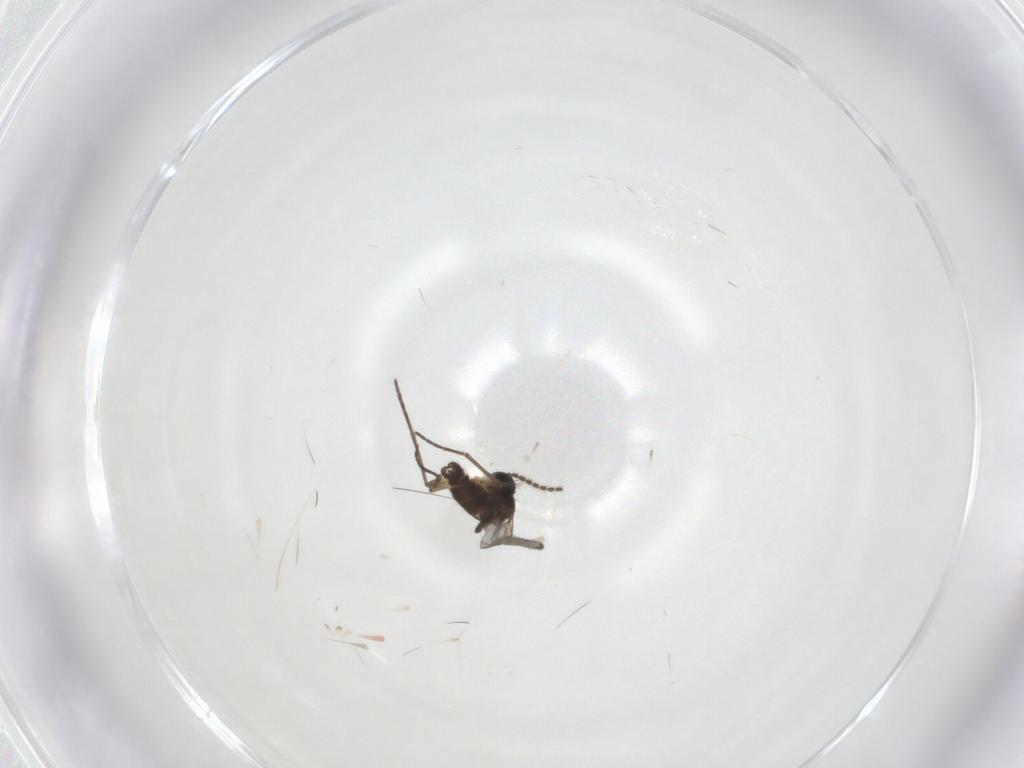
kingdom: Animalia
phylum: Arthropoda
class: Insecta
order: Diptera
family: Sciaridae
